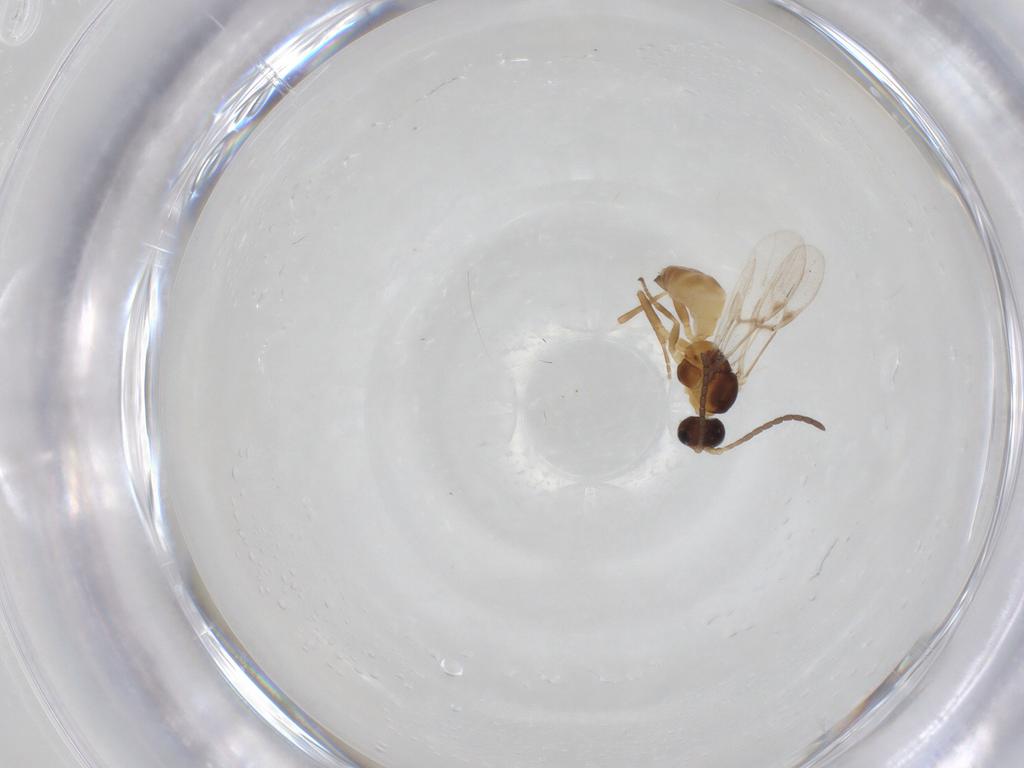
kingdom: Animalia
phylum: Arthropoda
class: Insecta
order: Hymenoptera
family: Braconidae
